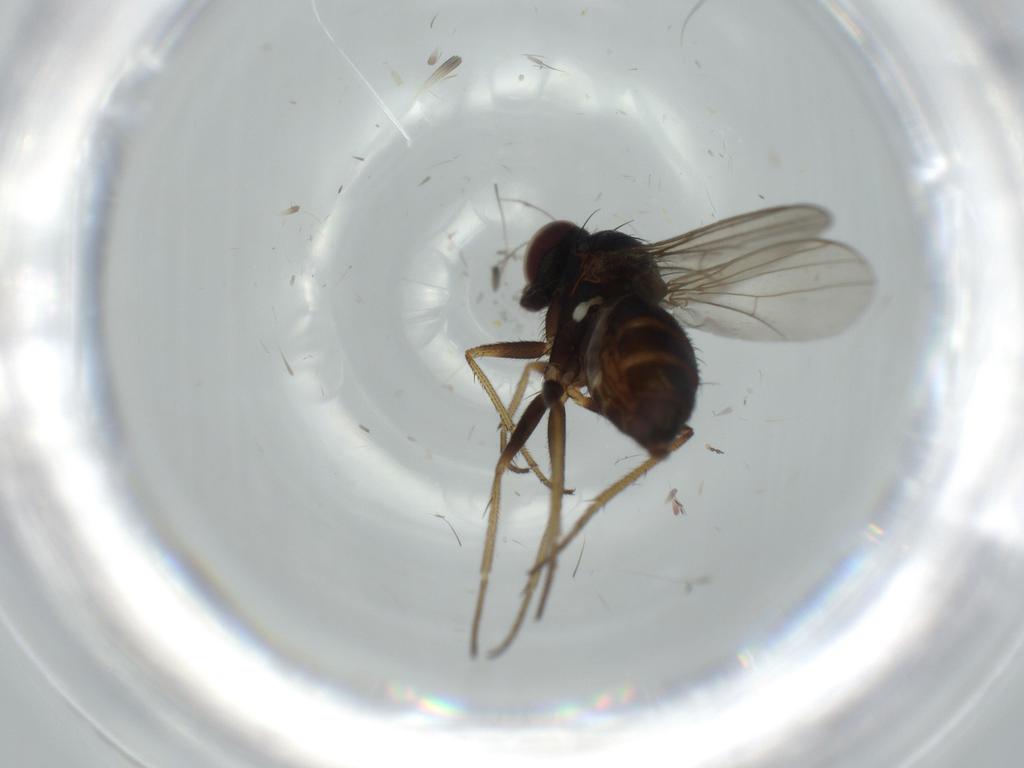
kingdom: Animalia
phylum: Arthropoda
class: Insecta
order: Diptera
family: Dolichopodidae
